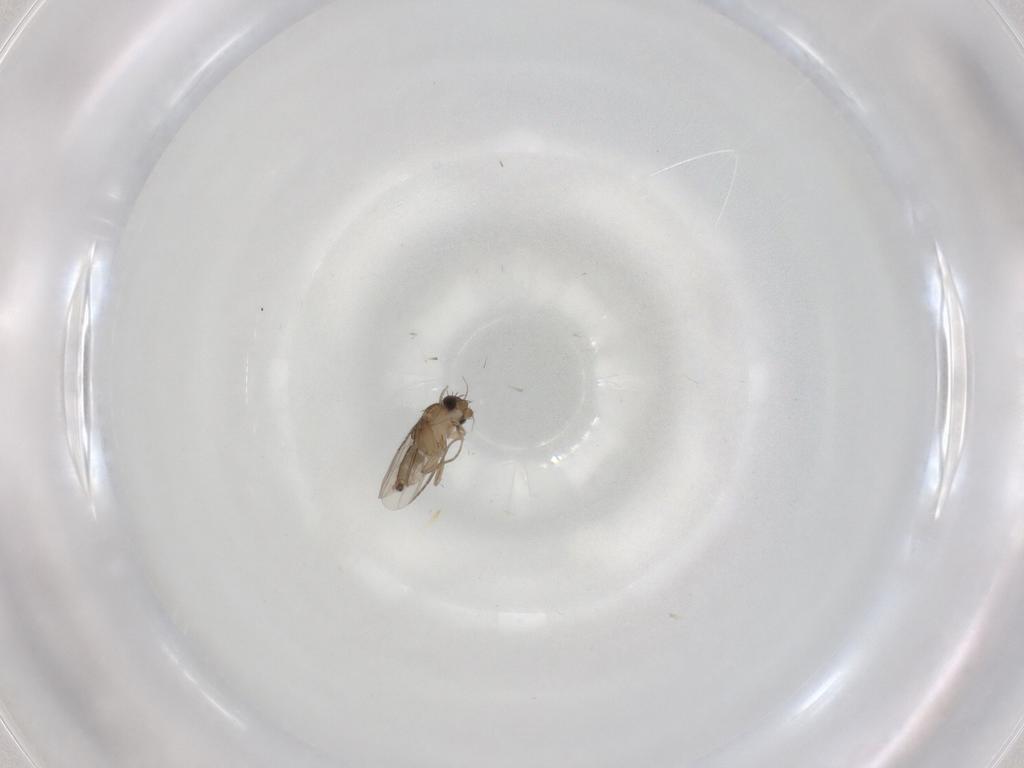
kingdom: Animalia
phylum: Arthropoda
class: Insecta
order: Diptera
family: Phoridae
